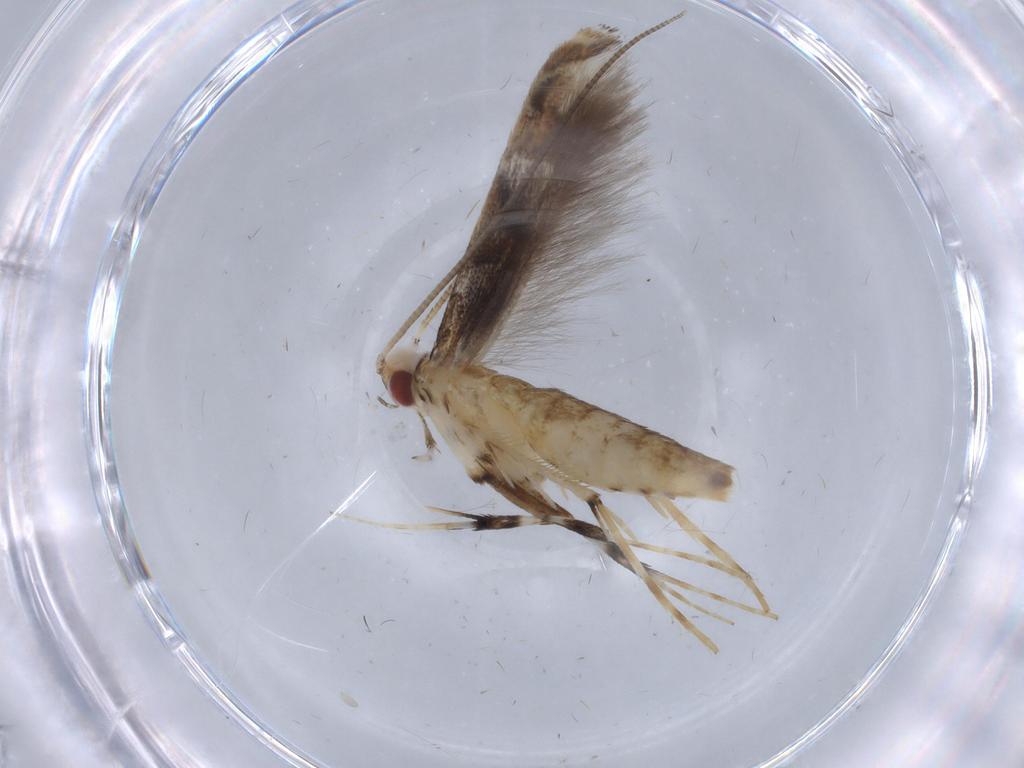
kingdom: Animalia
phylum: Arthropoda
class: Insecta
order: Lepidoptera
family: Gracillariidae
